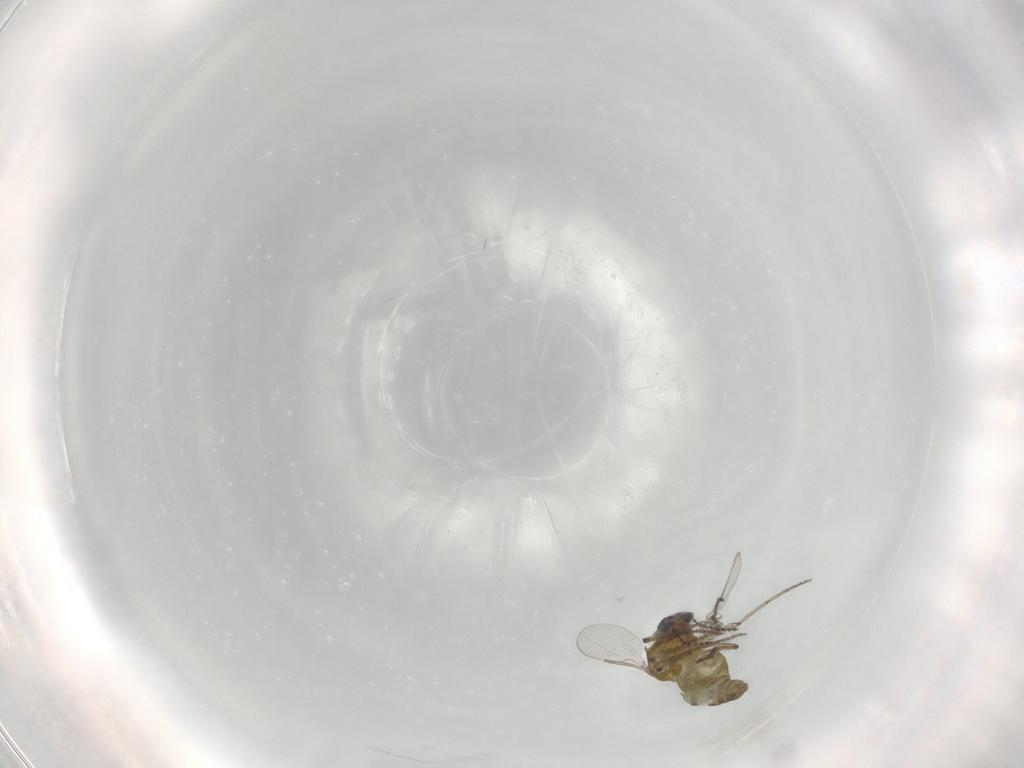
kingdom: Animalia
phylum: Arthropoda
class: Insecta
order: Diptera
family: Ceratopogonidae
